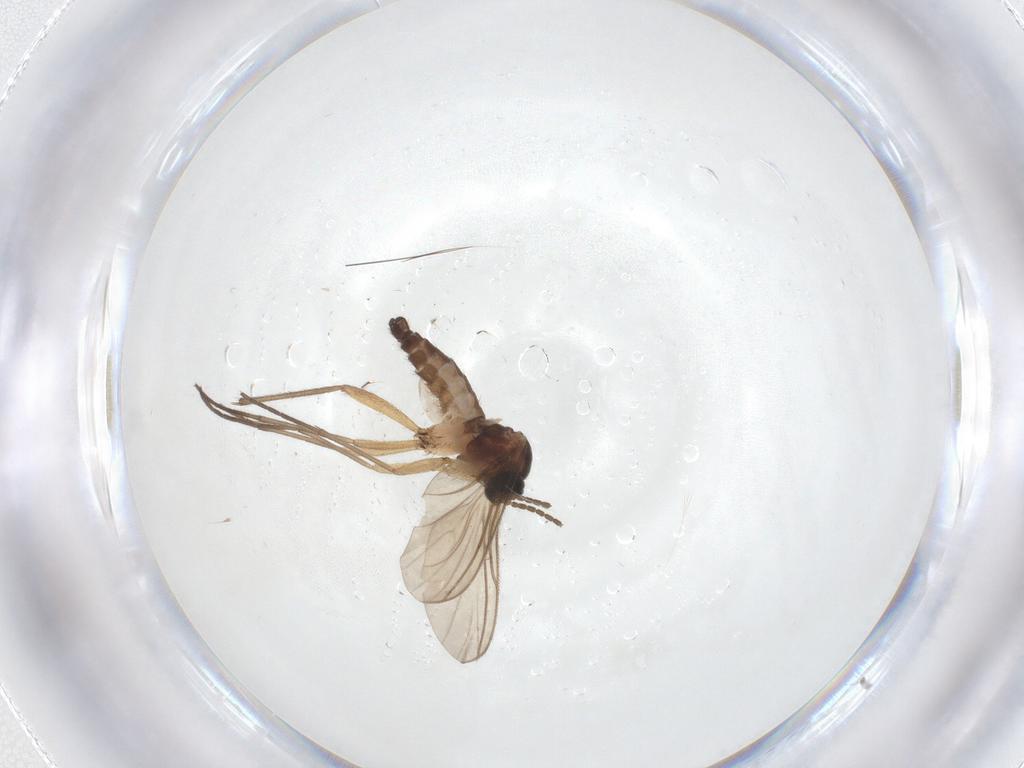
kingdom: Animalia
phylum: Arthropoda
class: Insecta
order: Diptera
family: Sciaridae
